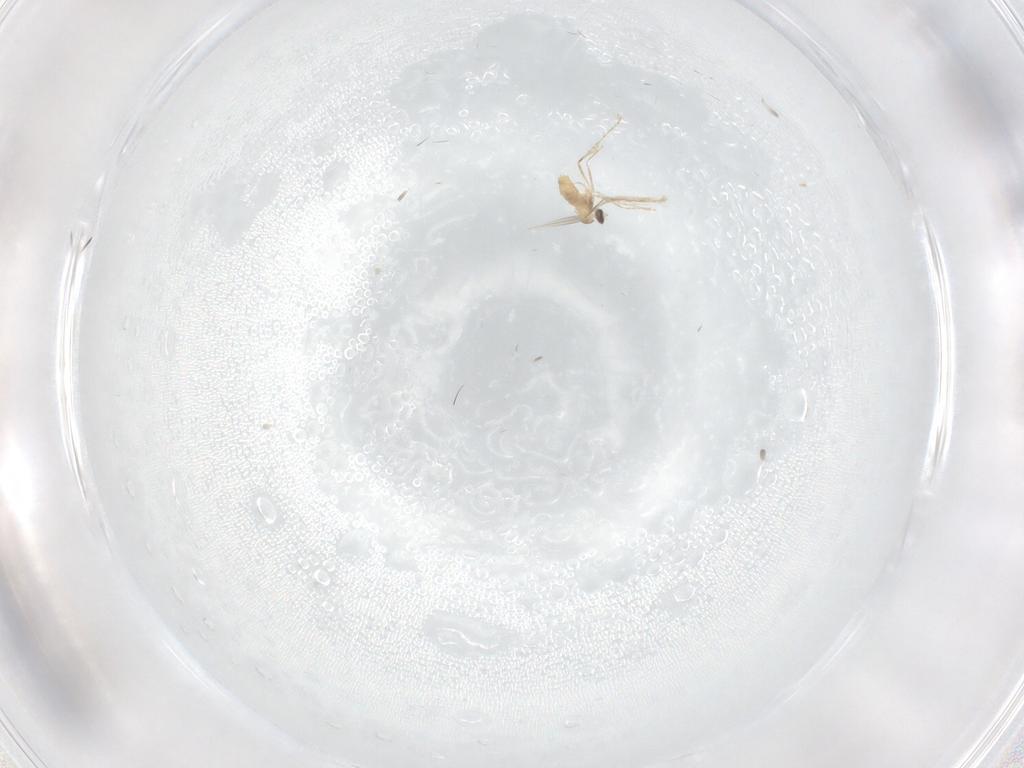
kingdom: Animalia
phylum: Arthropoda
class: Insecta
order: Diptera
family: Cecidomyiidae
